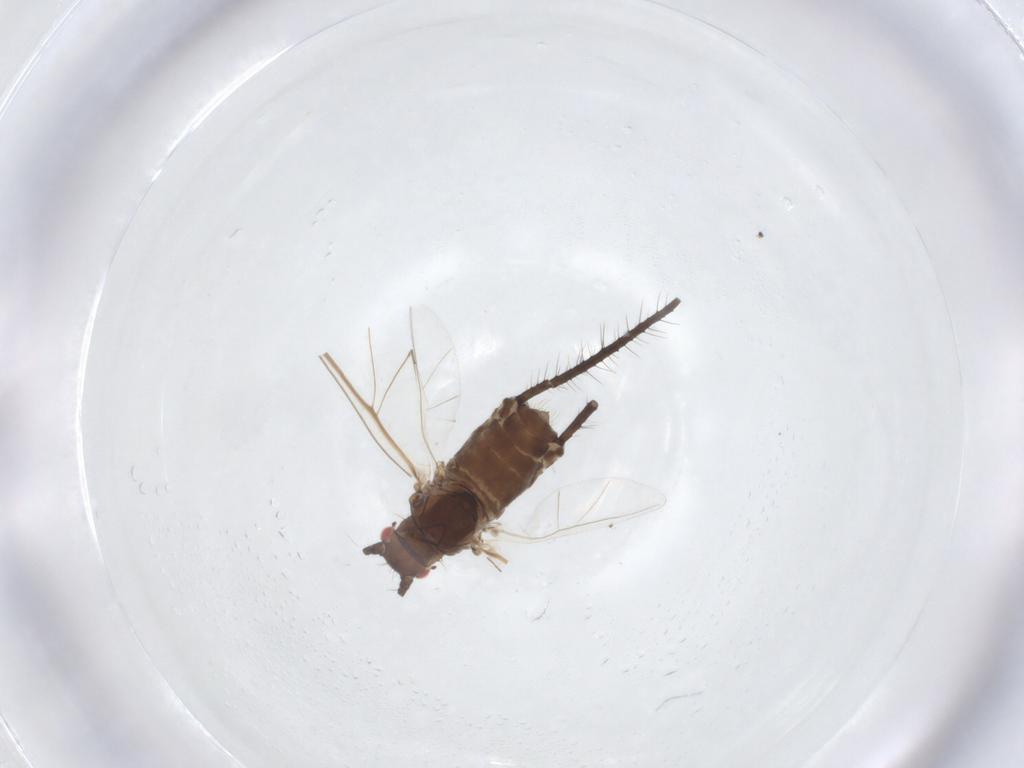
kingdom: Animalia
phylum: Arthropoda
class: Insecta
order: Hemiptera
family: Aphididae
